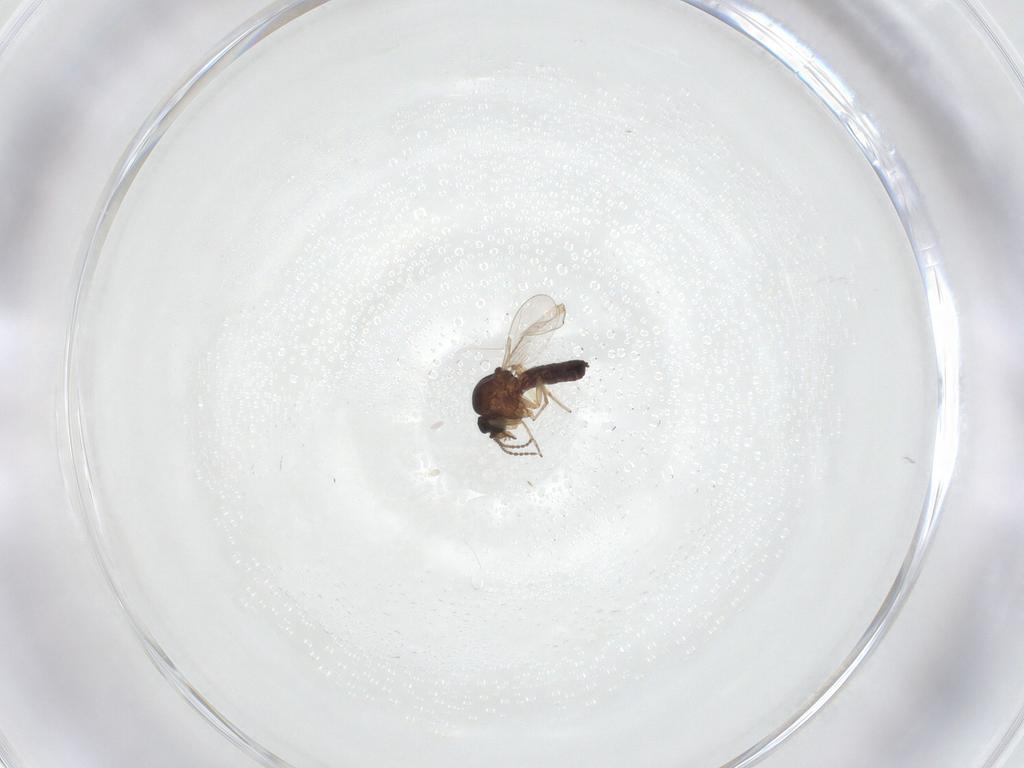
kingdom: Animalia
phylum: Arthropoda
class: Insecta
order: Diptera
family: Ceratopogonidae
